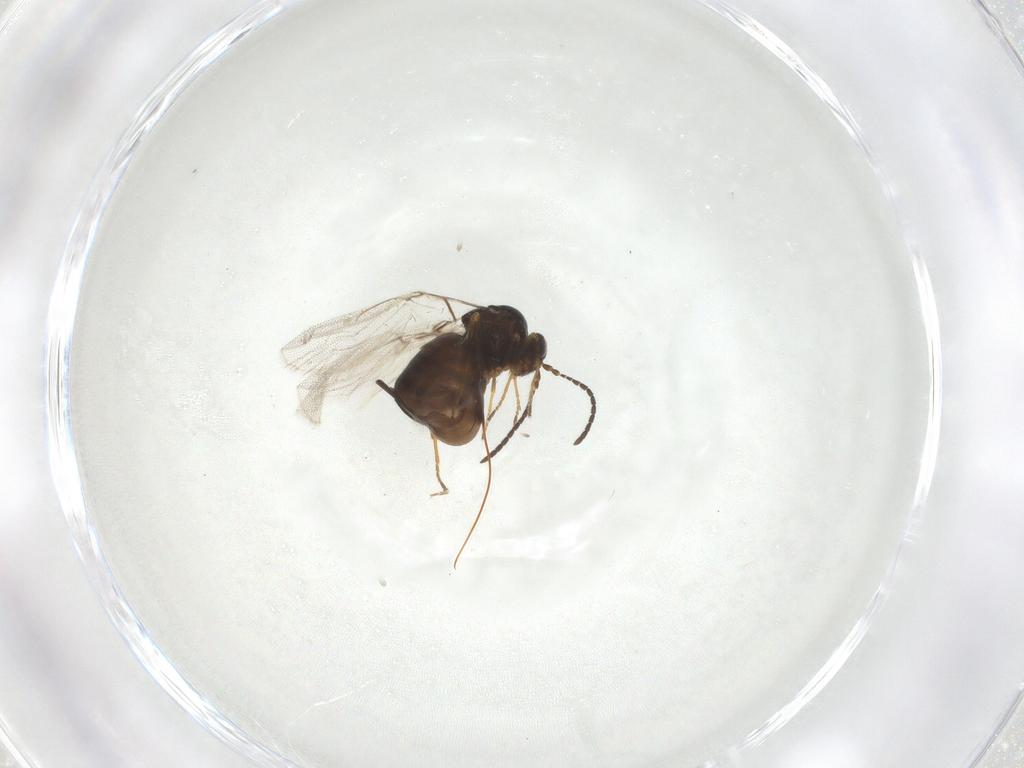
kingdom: Animalia
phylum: Arthropoda
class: Insecta
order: Hymenoptera
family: Cynipidae
